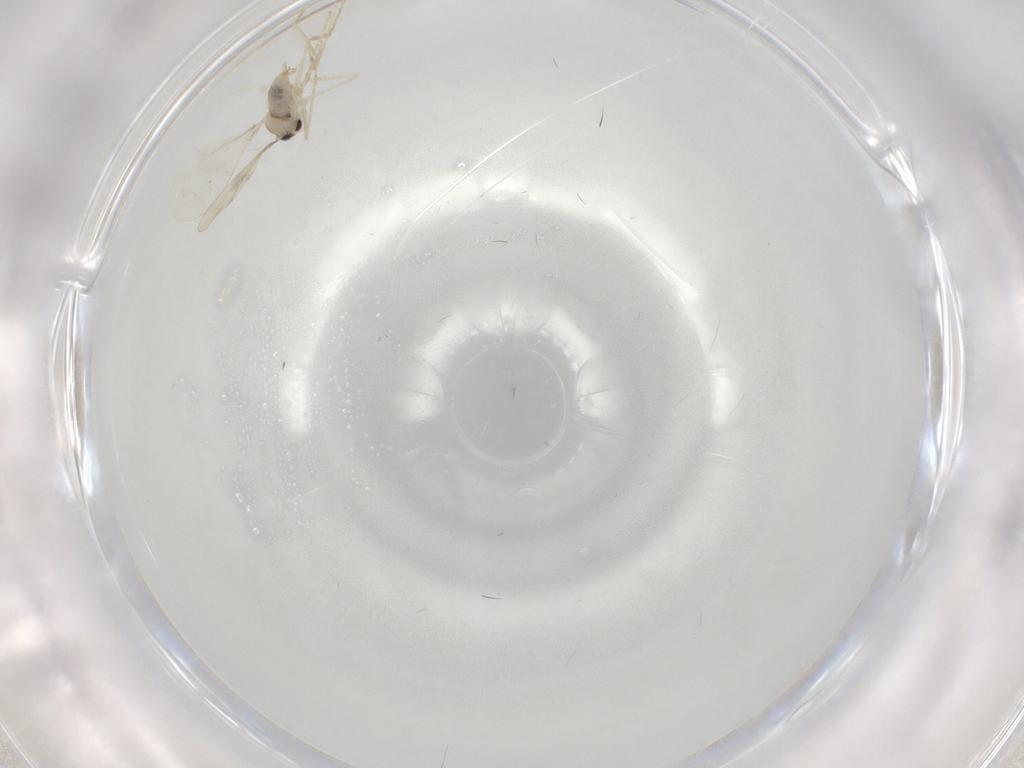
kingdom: Animalia
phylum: Arthropoda
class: Insecta
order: Diptera
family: Cecidomyiidae
